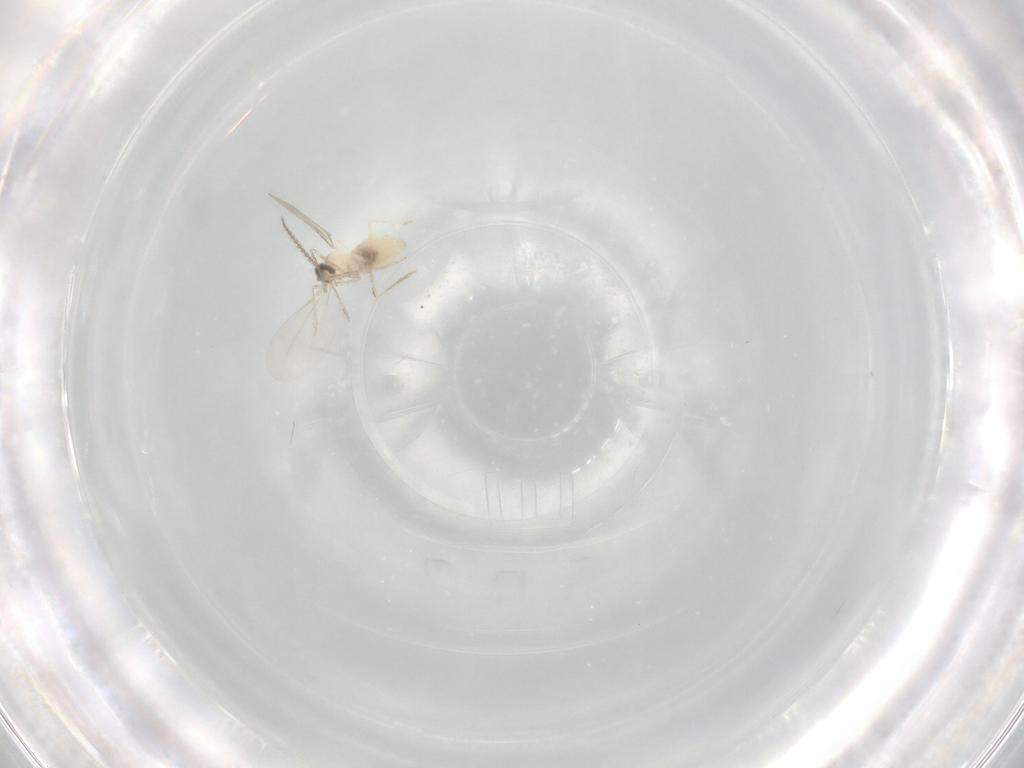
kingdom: Animalia
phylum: Arthropoda
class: Insecta
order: Diptera
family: Cecidomyiidae
